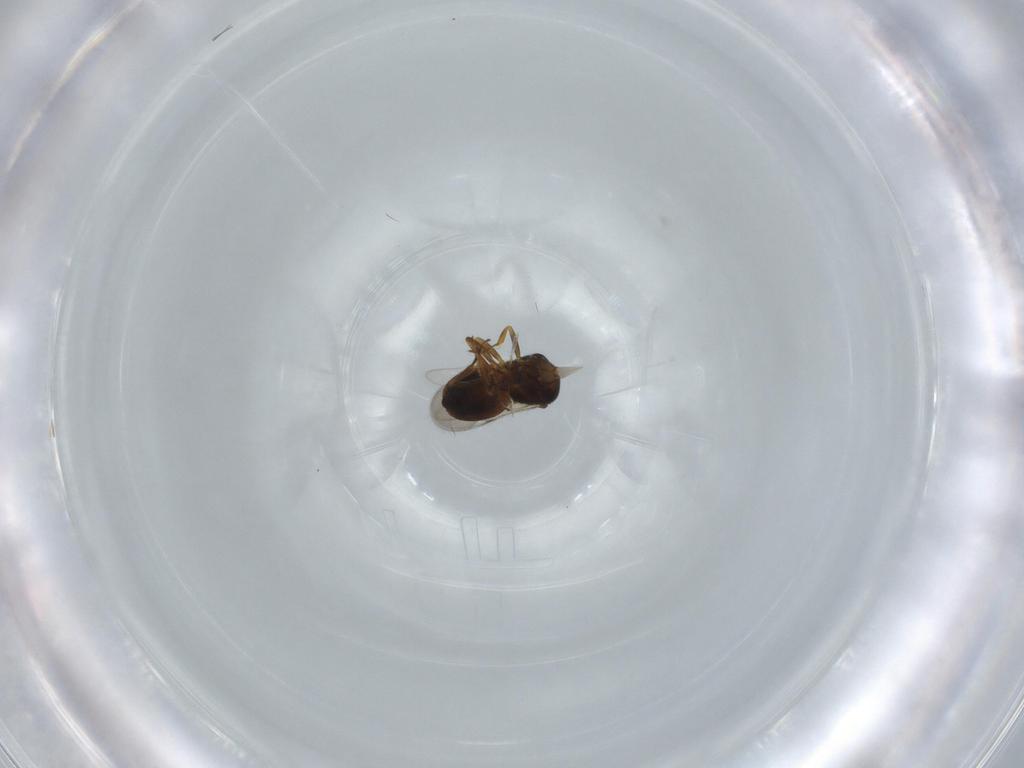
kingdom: Animalia
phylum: Arthropoda
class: Insecta
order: Hymenoptera
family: Scelionidae
